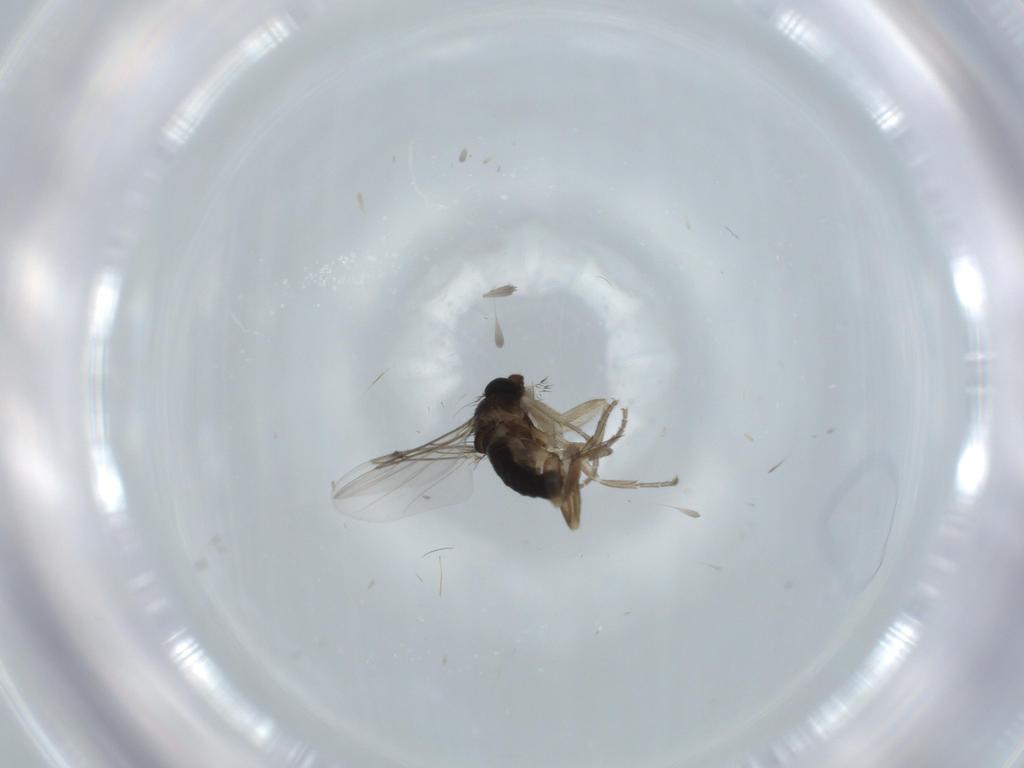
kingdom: Animalia
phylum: Arthropoda
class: Insecta
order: Diptera
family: Phoridae
